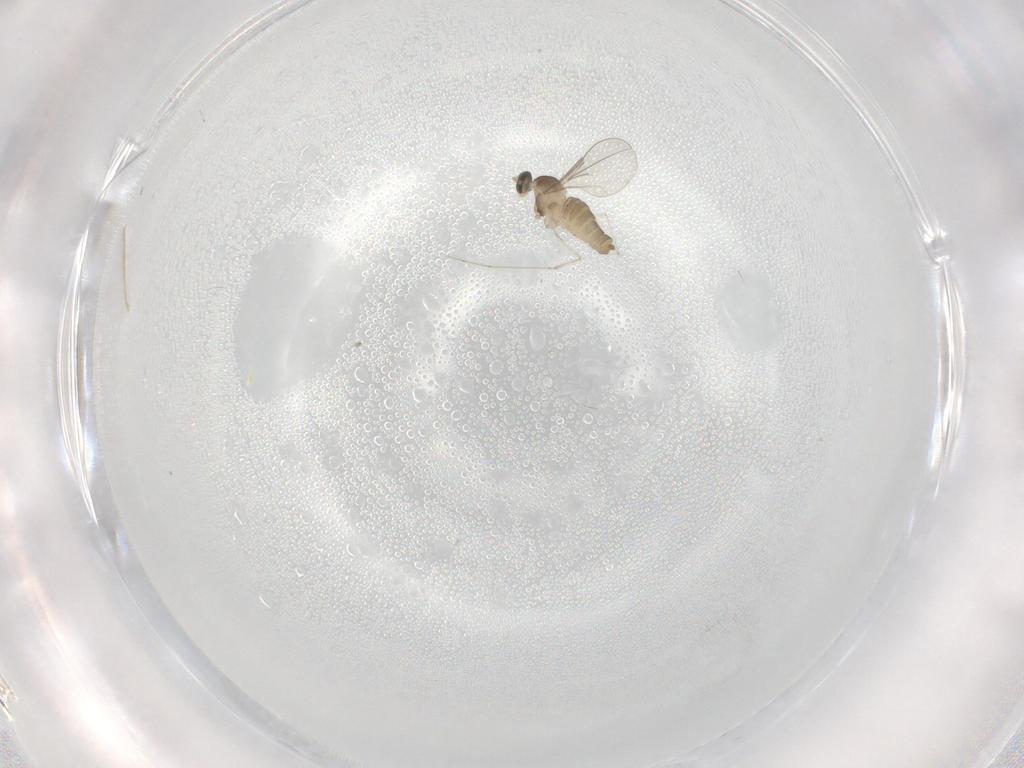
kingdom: Animalia
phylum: Arthropoda
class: Insecta
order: Diptera
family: Cecidomyiidae
